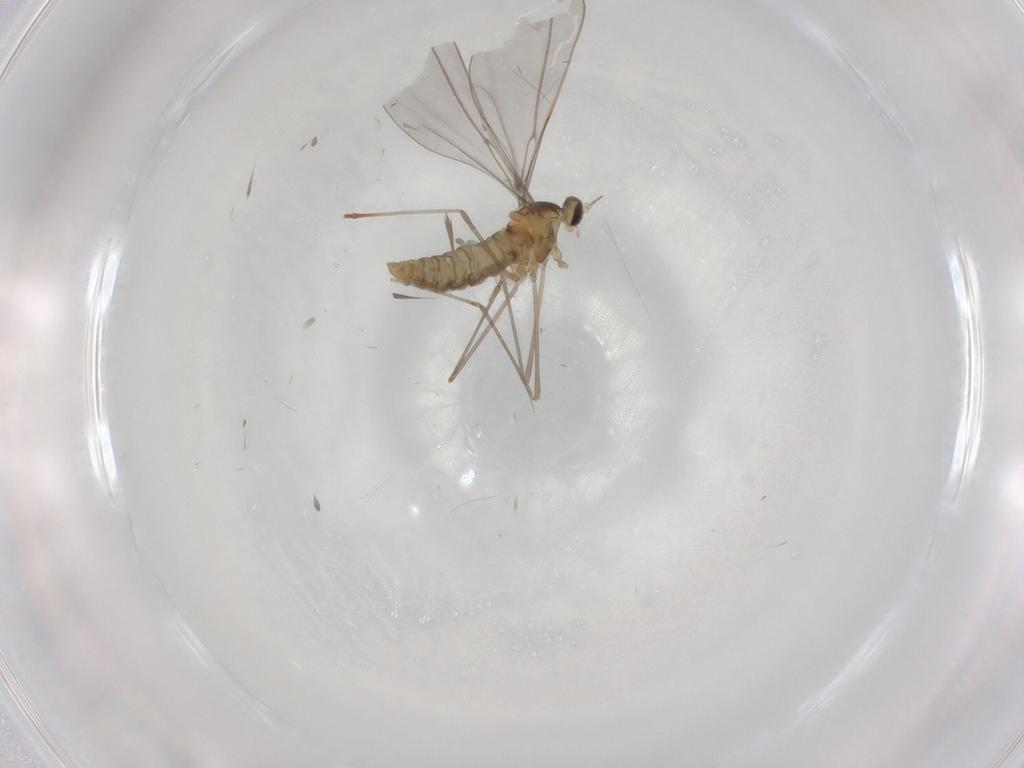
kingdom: Animalia
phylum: Arthropoda
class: Insecta
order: Diptera
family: Cecidomyiidae
